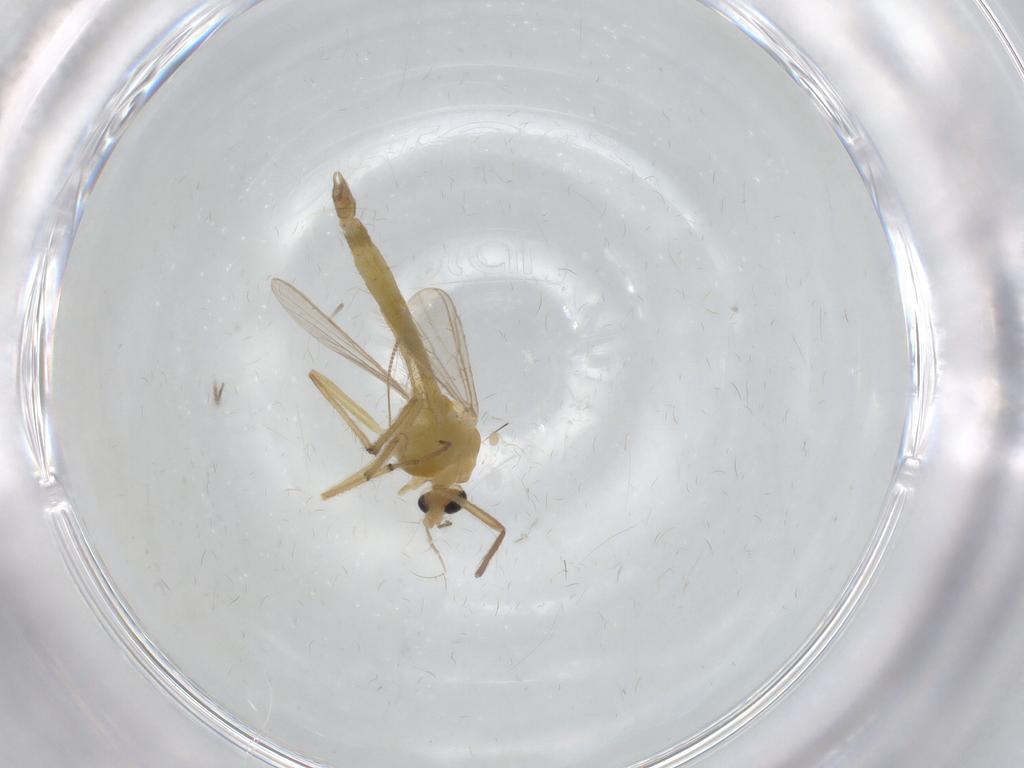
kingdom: Animalia
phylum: Arthropoda
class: Insecta
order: Diptera
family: Chironomidae
